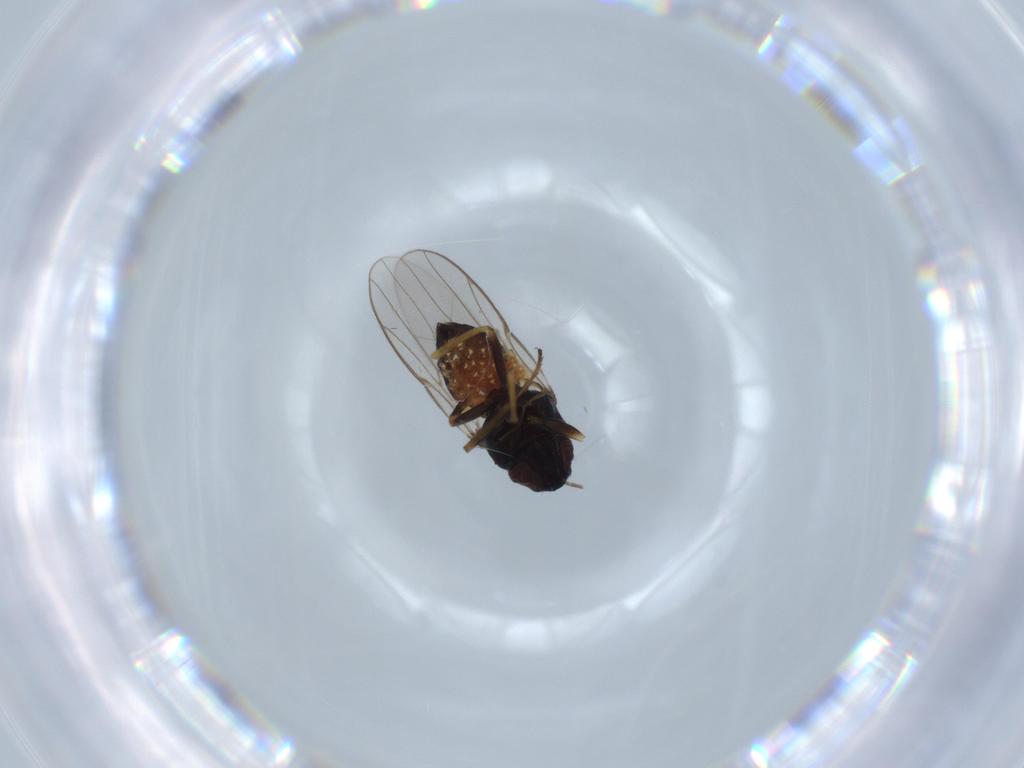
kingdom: Animalia
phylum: Arthropoda
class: Insecta
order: Diptera
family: Chloropidae
